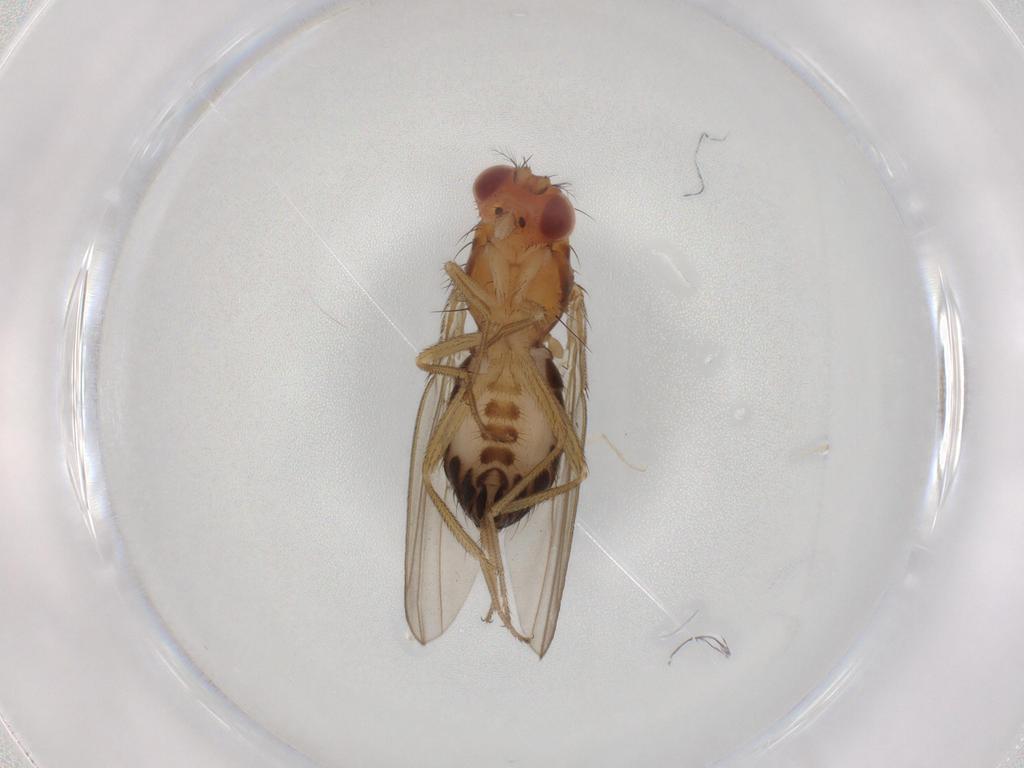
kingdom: Animalia
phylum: Arthropoda
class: Insecta
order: Diptera
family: Drosophilidae
